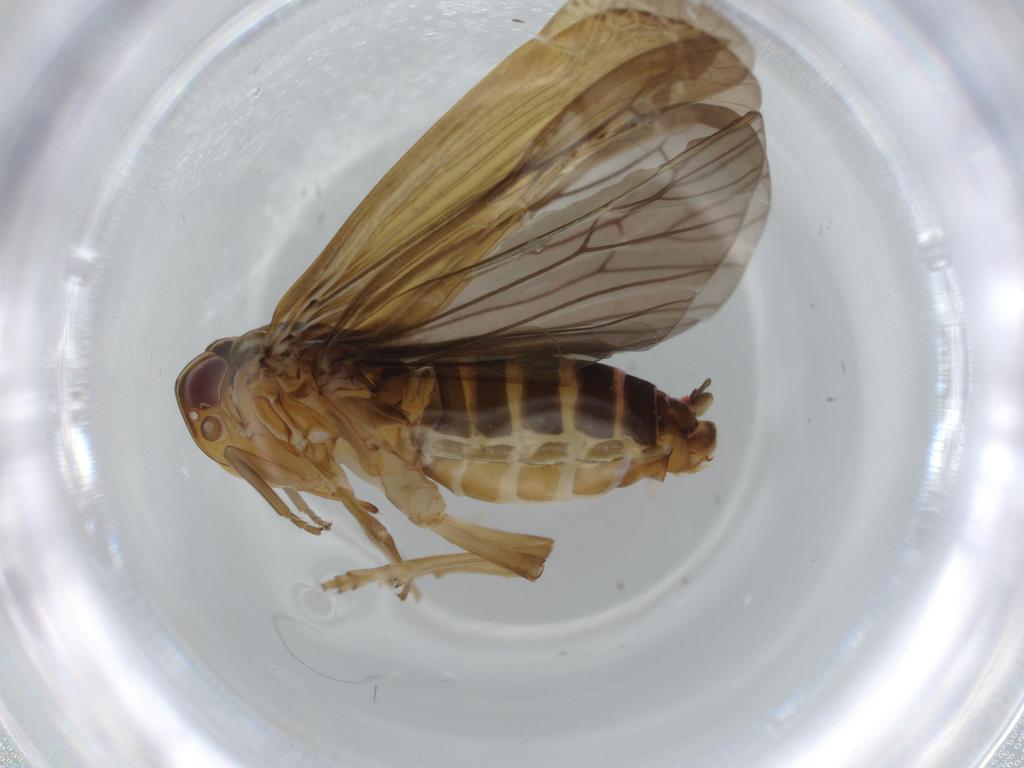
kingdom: Animalia
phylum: Arthropoda
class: Insecta
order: Hemiptera
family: Achilidae
